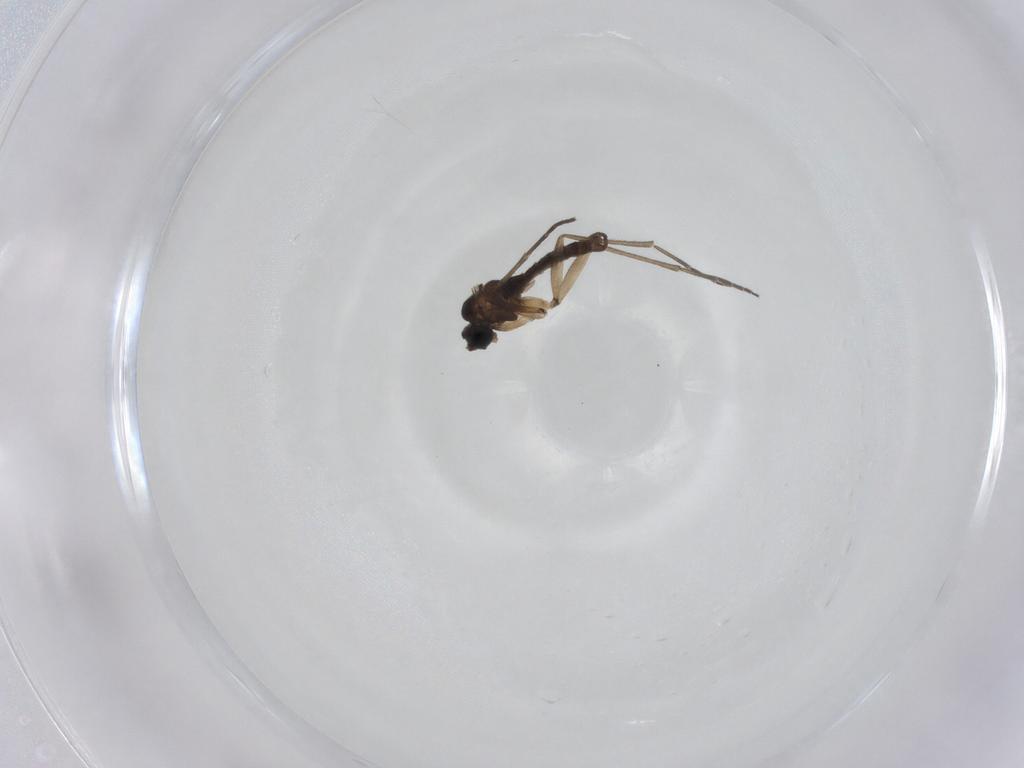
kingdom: Animalia
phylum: Arthropoda
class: Insecta
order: Diptera
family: Sciaridae
